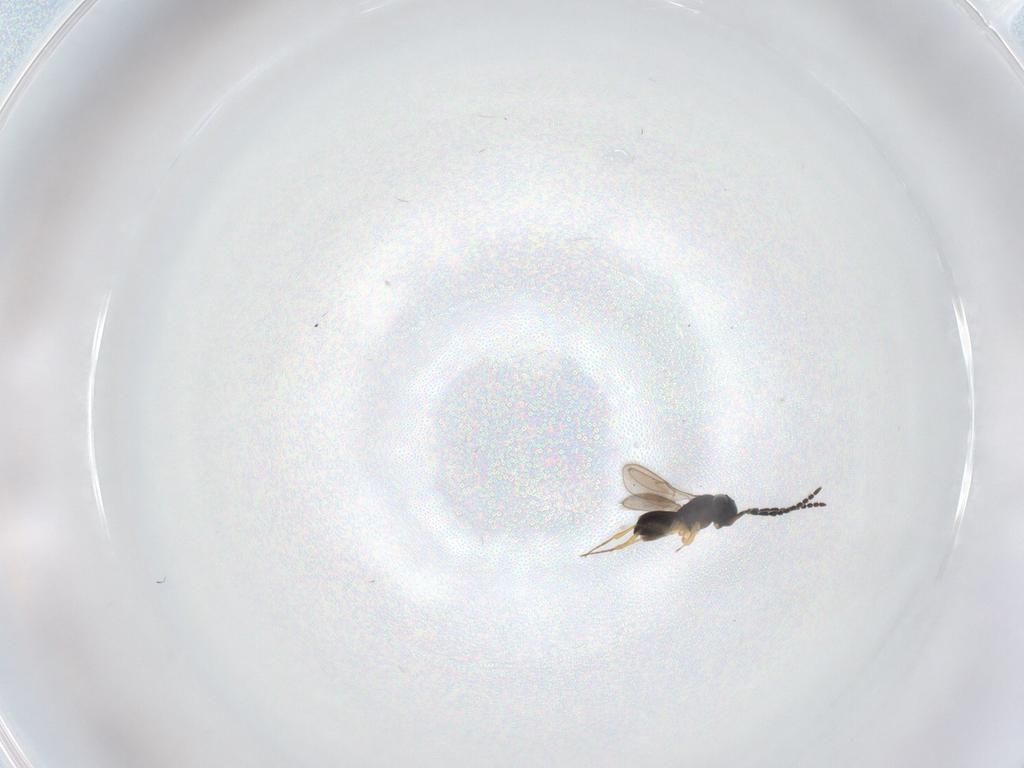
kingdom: Animalia
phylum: Arthropoda
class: Insecta
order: Hymenoptera
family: Scelionidae
